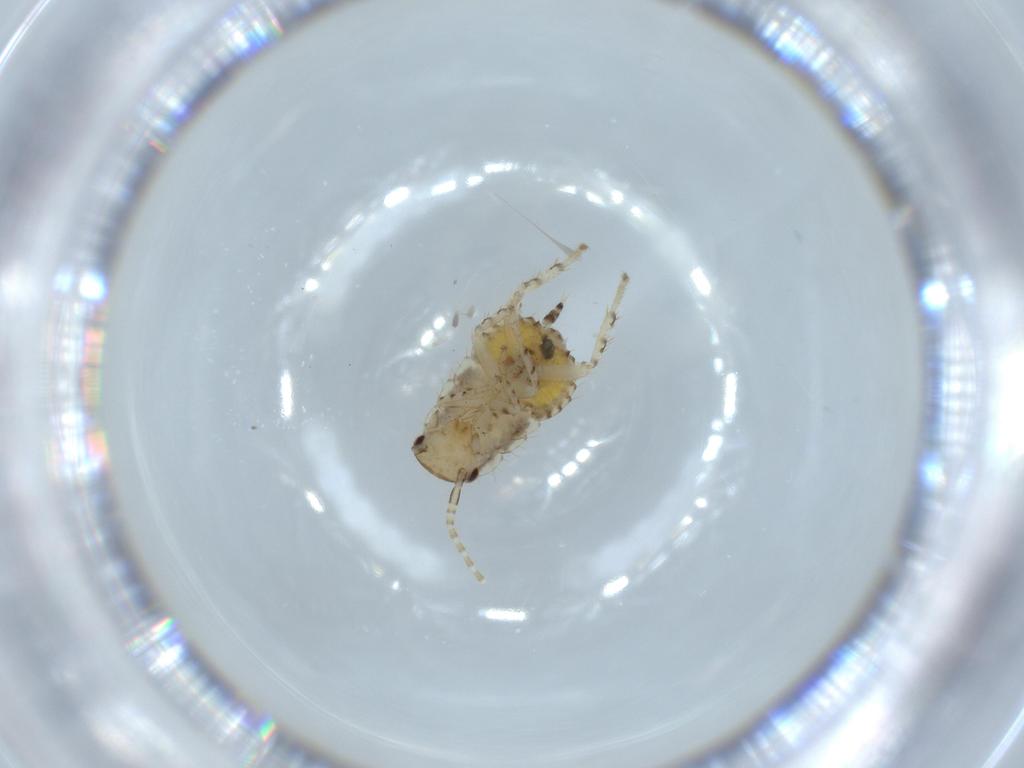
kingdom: Animalia
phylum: Arthropoda
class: Insecta
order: Blattodea
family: Ectobiidae
